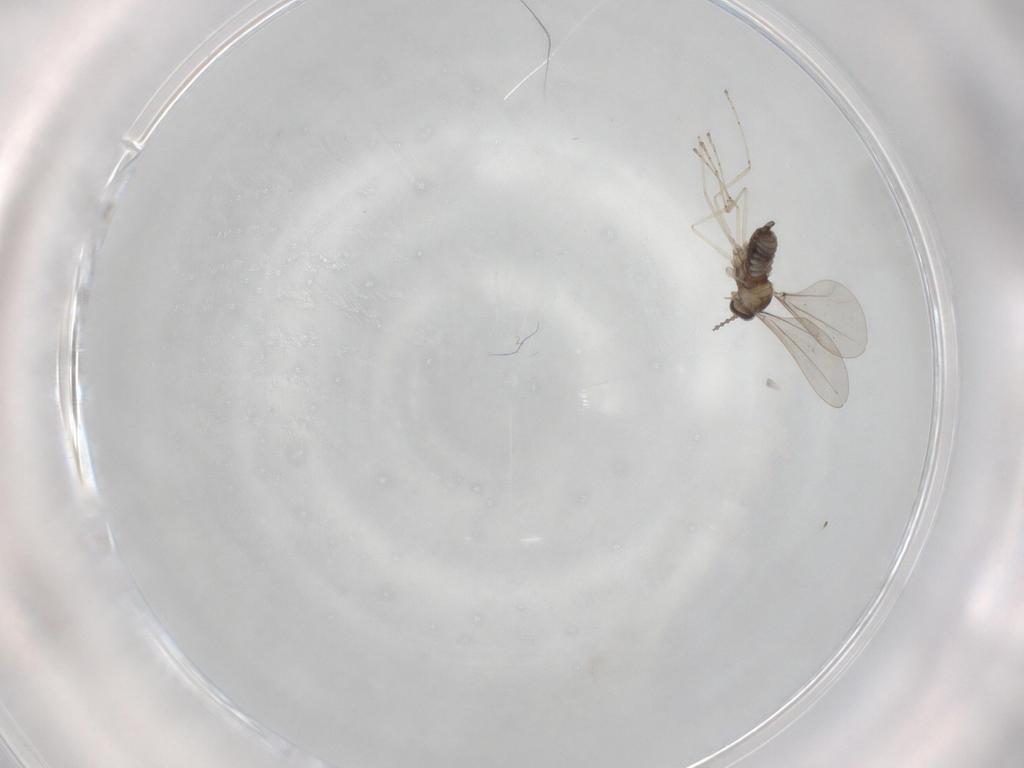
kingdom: Animalia
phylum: Arthropoda
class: Insecta
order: Diptera
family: Cecidomyiidae
